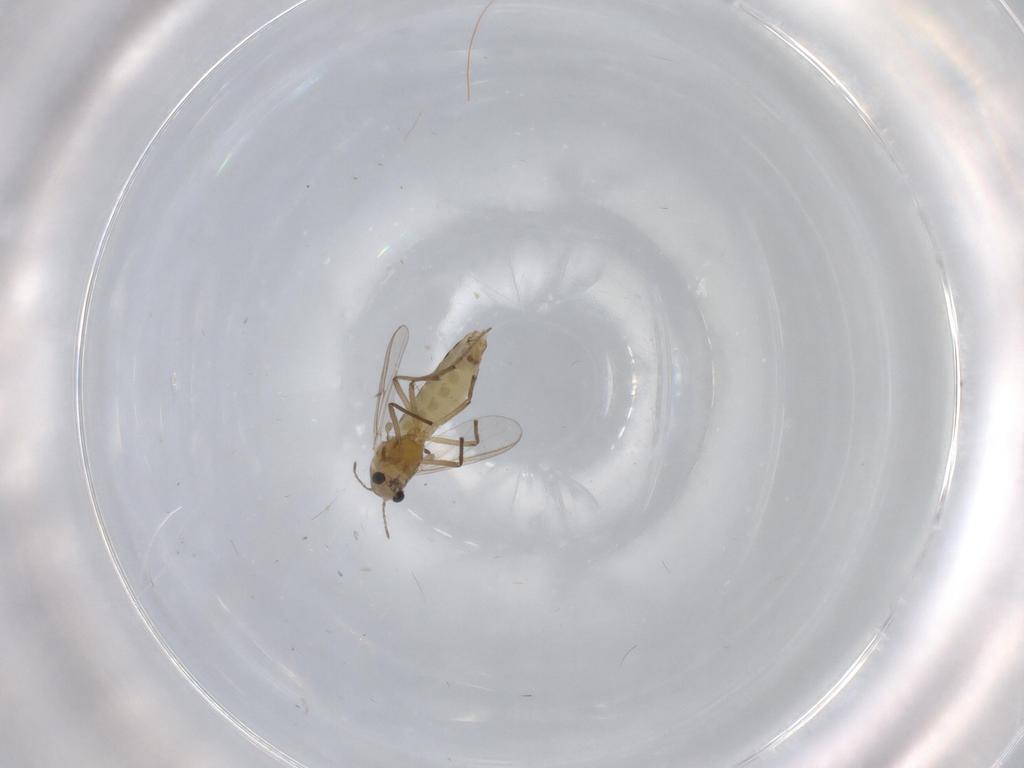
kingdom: Animalia
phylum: Arthropoda
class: Insecta
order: Diptera
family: Chironomidae
